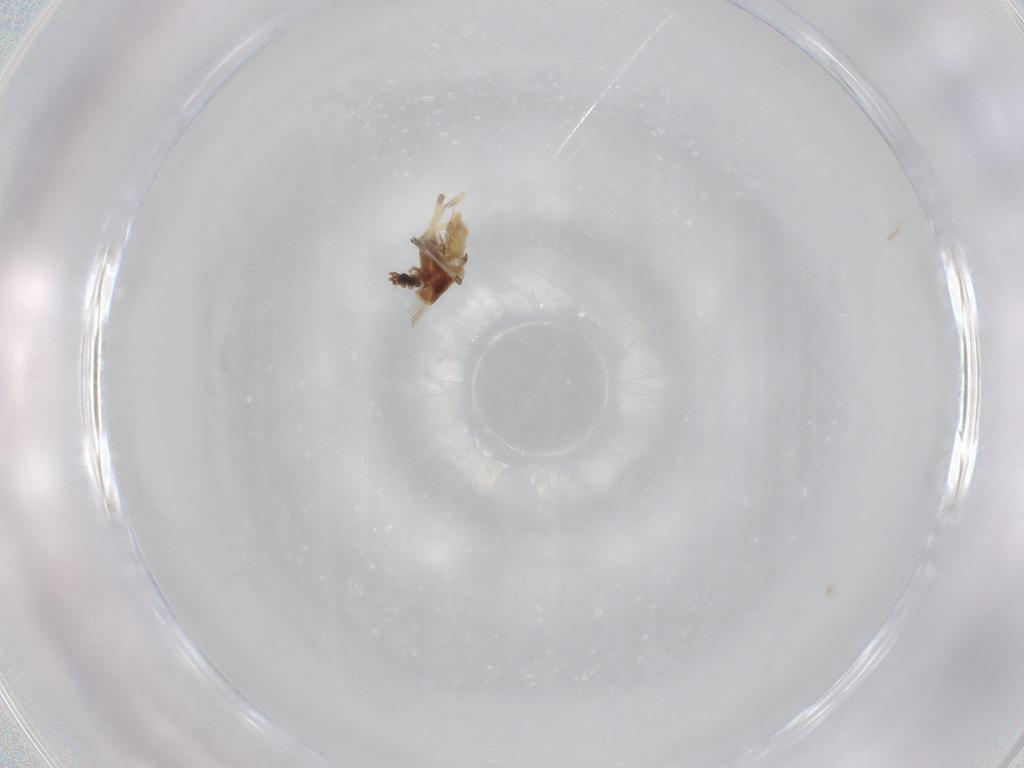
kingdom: Animalia
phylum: Arthropoda
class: Insecta
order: Diptera
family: Chironomidae
